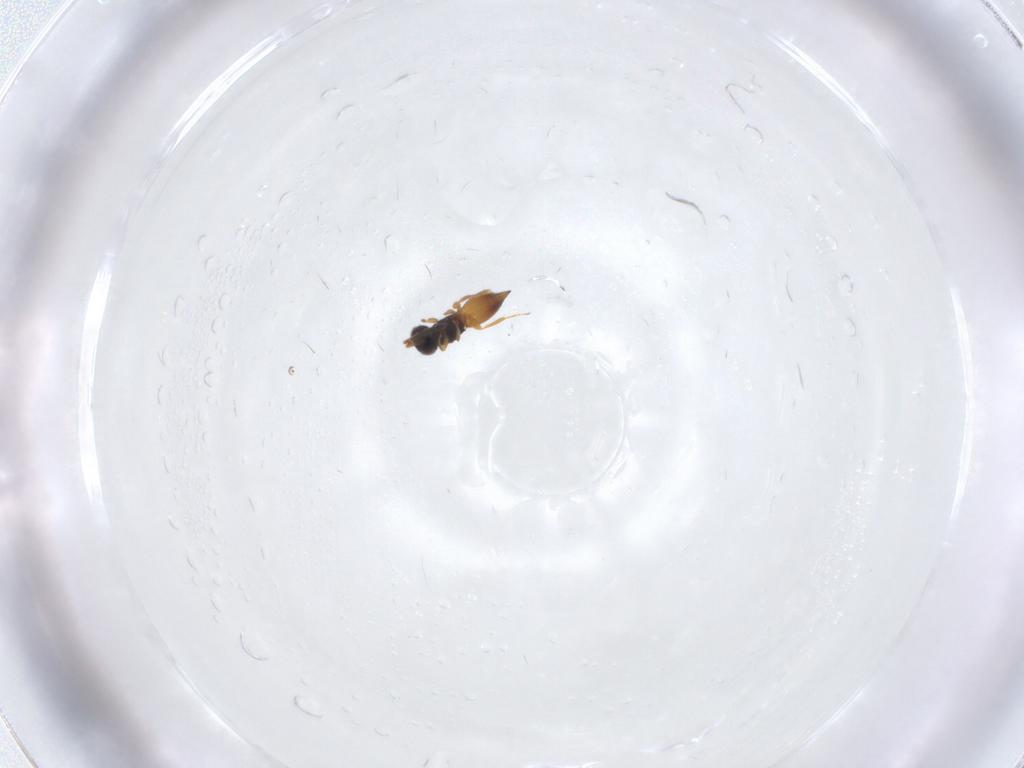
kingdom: Animalia
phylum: Arthropoda
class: Insecta
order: Hymenoptera
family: Ceraphronidae
